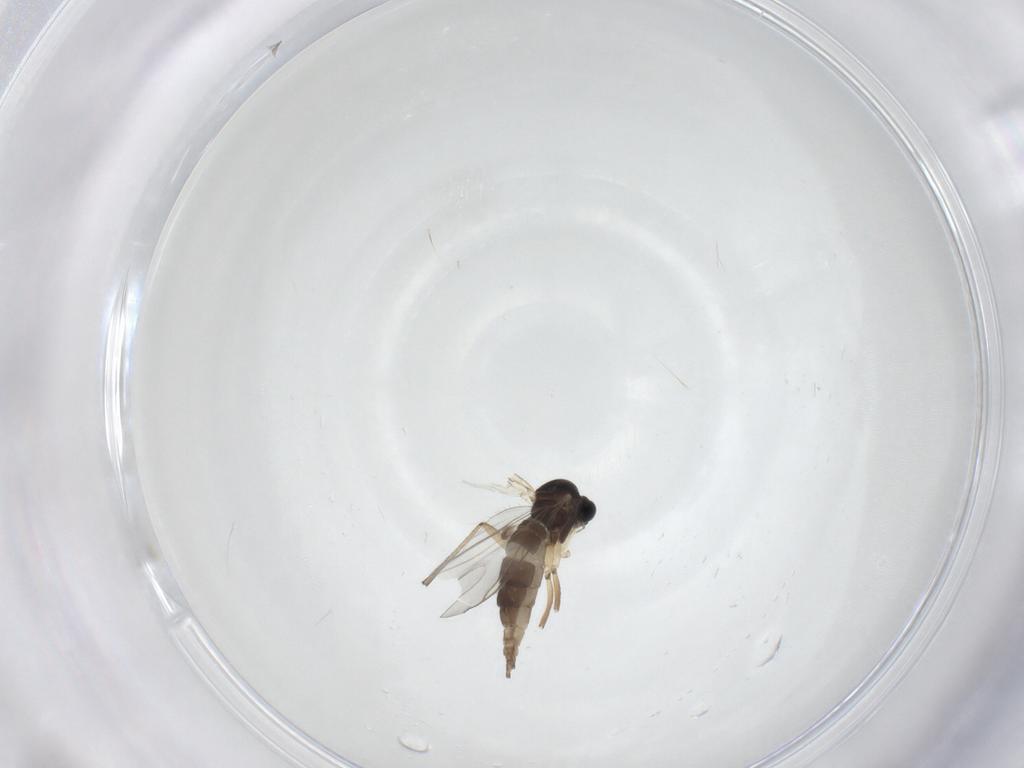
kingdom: Animalia
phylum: Arthropoda
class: Insecta
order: Diptera
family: Sciaridae
